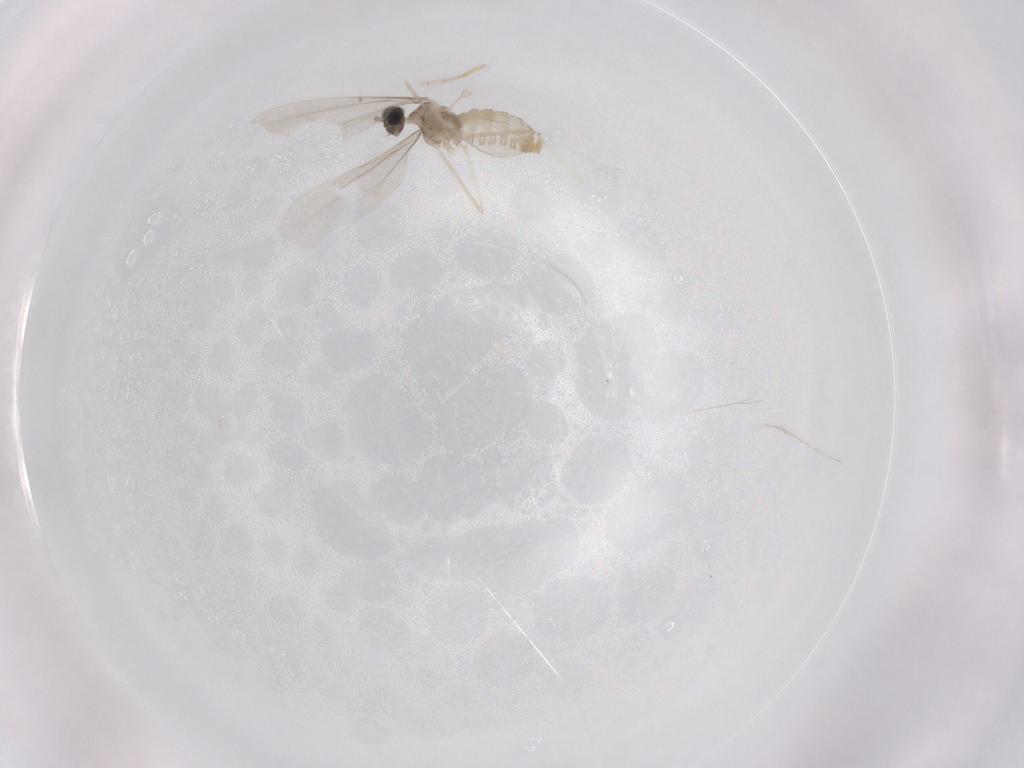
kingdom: Animalia
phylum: Arthropoda
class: Insecta
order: Diptera
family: Cecidomyiidae
